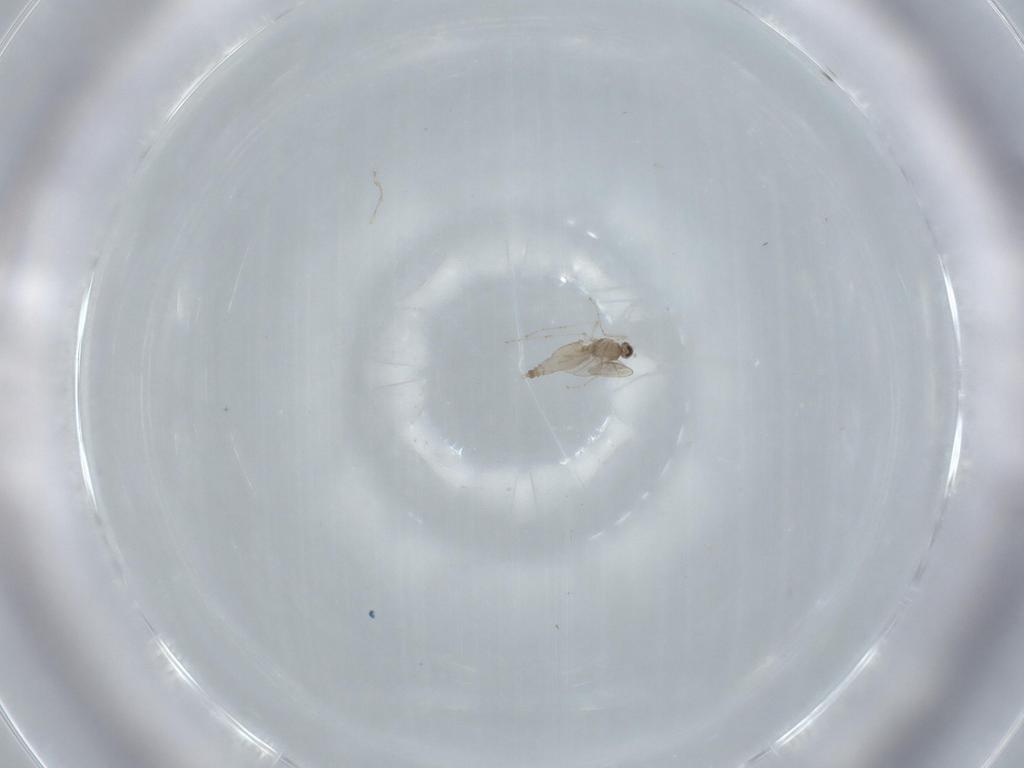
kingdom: Animalia
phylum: Arthropoda
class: Insecta
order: Diptera
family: Cecidomyiidae
